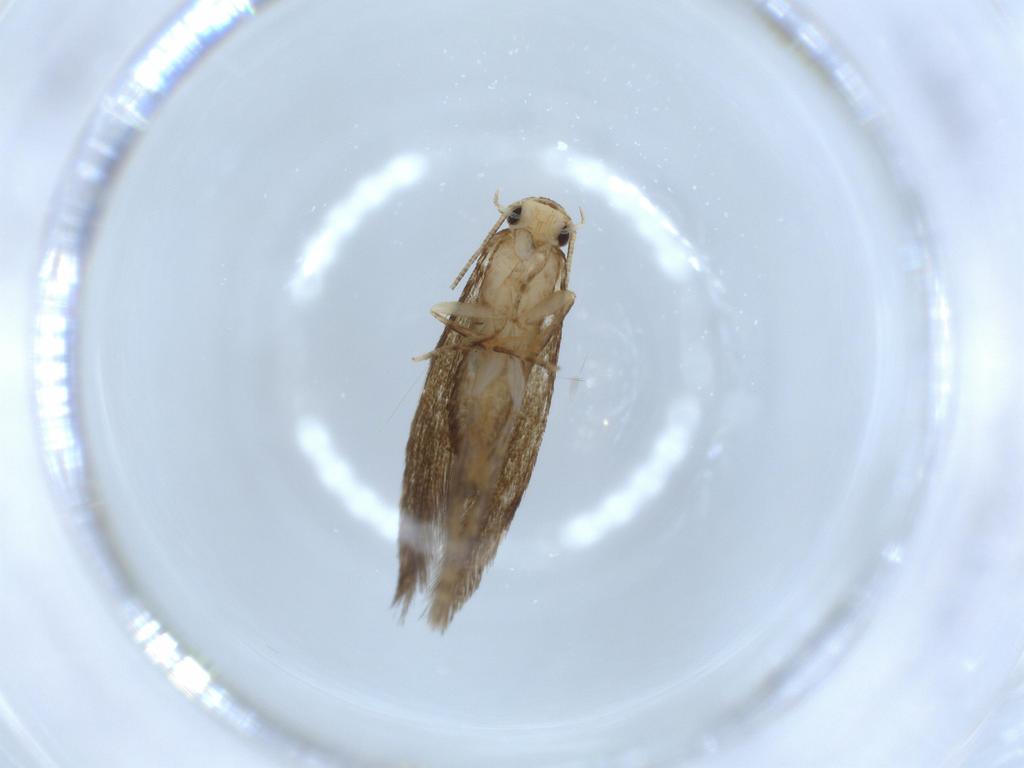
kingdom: Animalia
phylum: Arthropoda
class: Insecta
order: Lepidoptera
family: Tineidae
